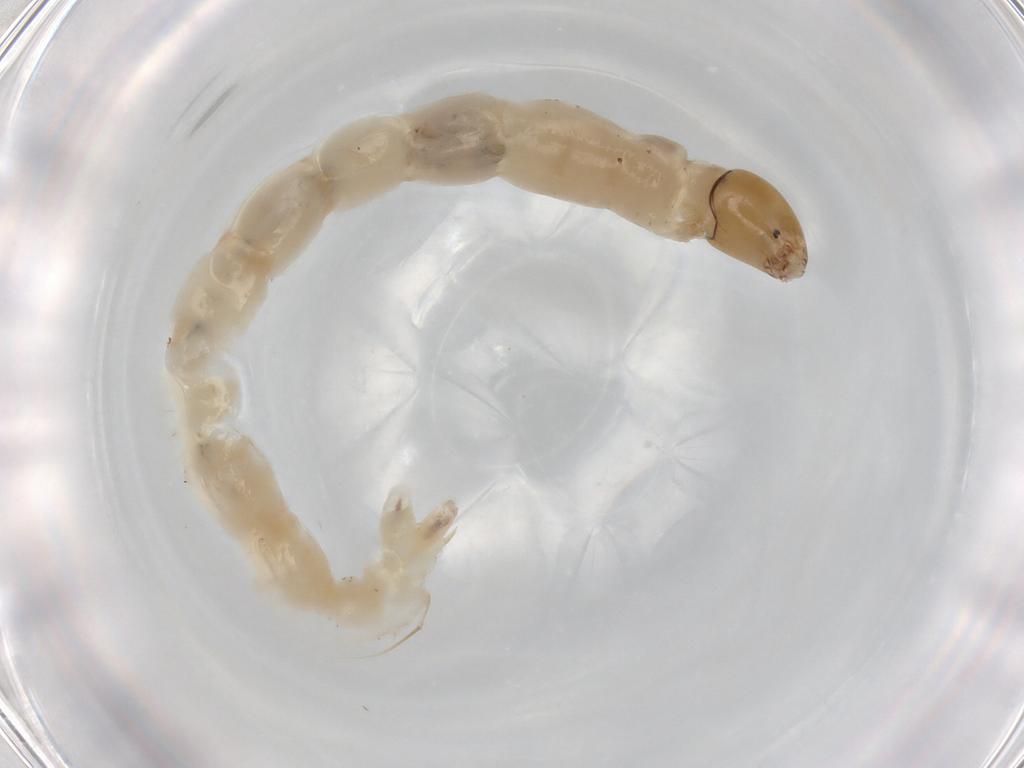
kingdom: Animalia
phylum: Arthropoda
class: Insecta
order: Diptera
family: Chironomidae
